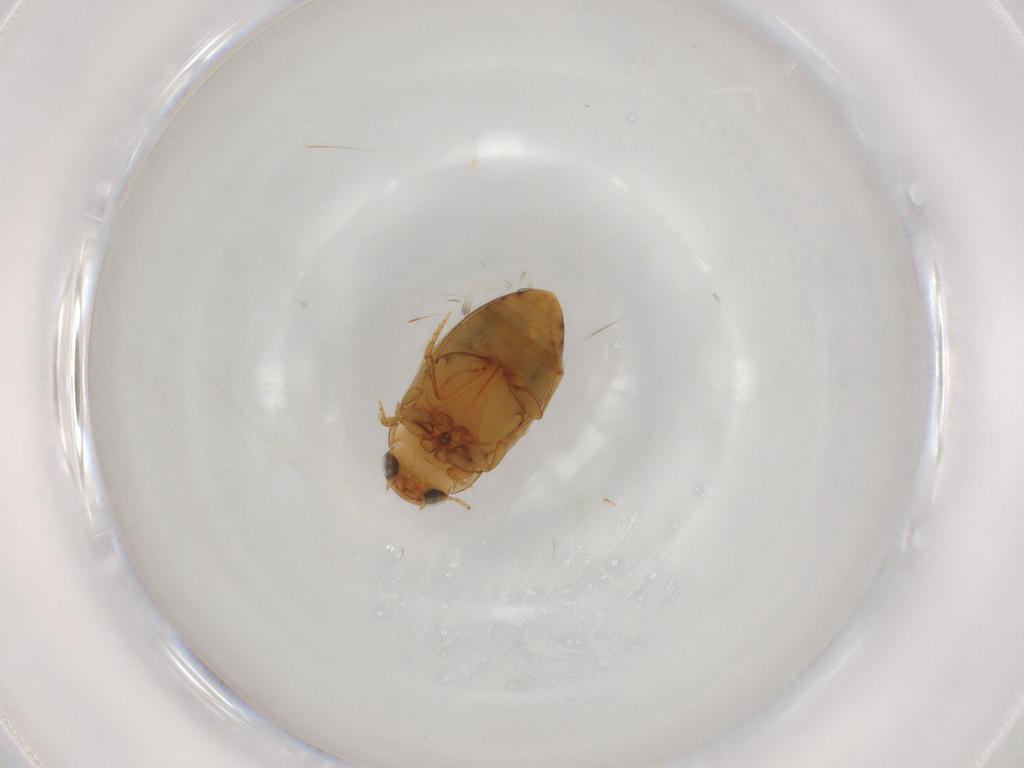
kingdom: Animalia
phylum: Arthropoda
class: Insecta
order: Coleoptera
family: Dytiscidae
